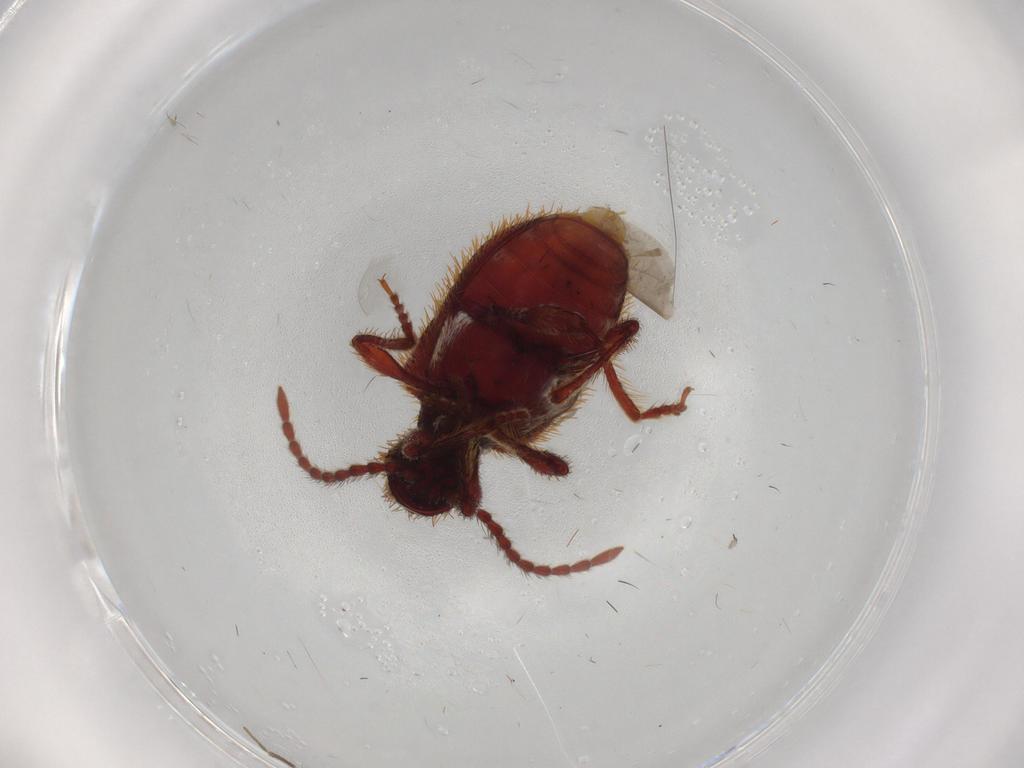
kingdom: Animalia
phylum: Arthropoda
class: Insecta
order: Coleoptera
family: Ptinidae
